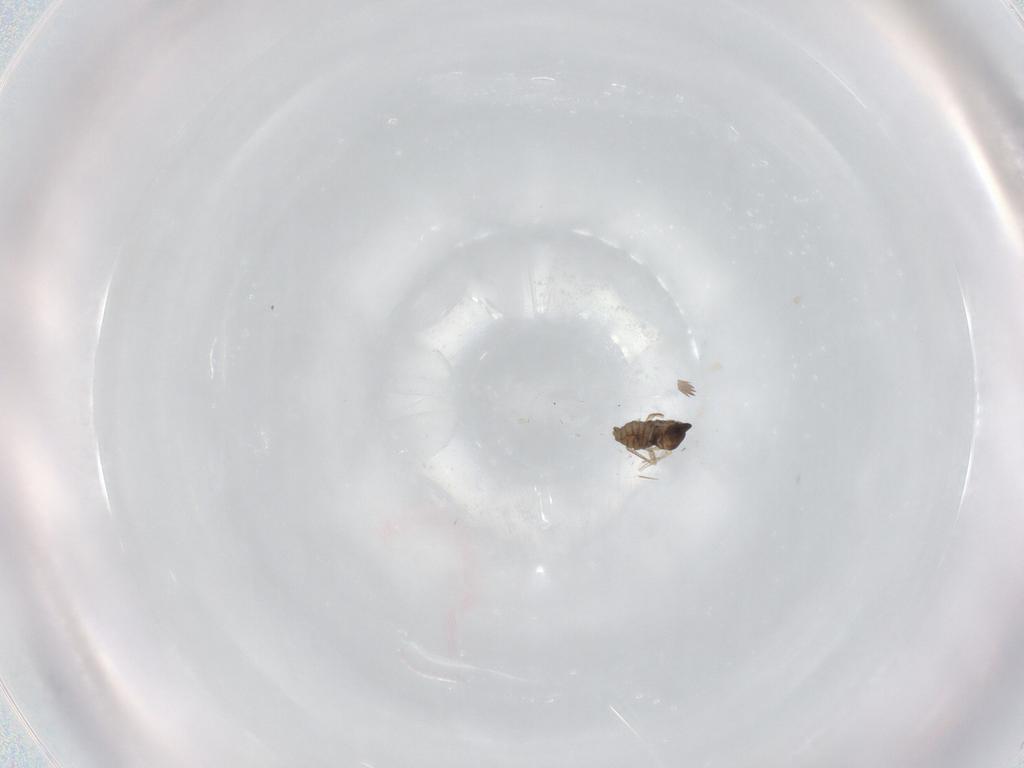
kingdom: Animalia
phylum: Arthropoda
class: Insecta
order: Diptera
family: Cecidomyiidae
